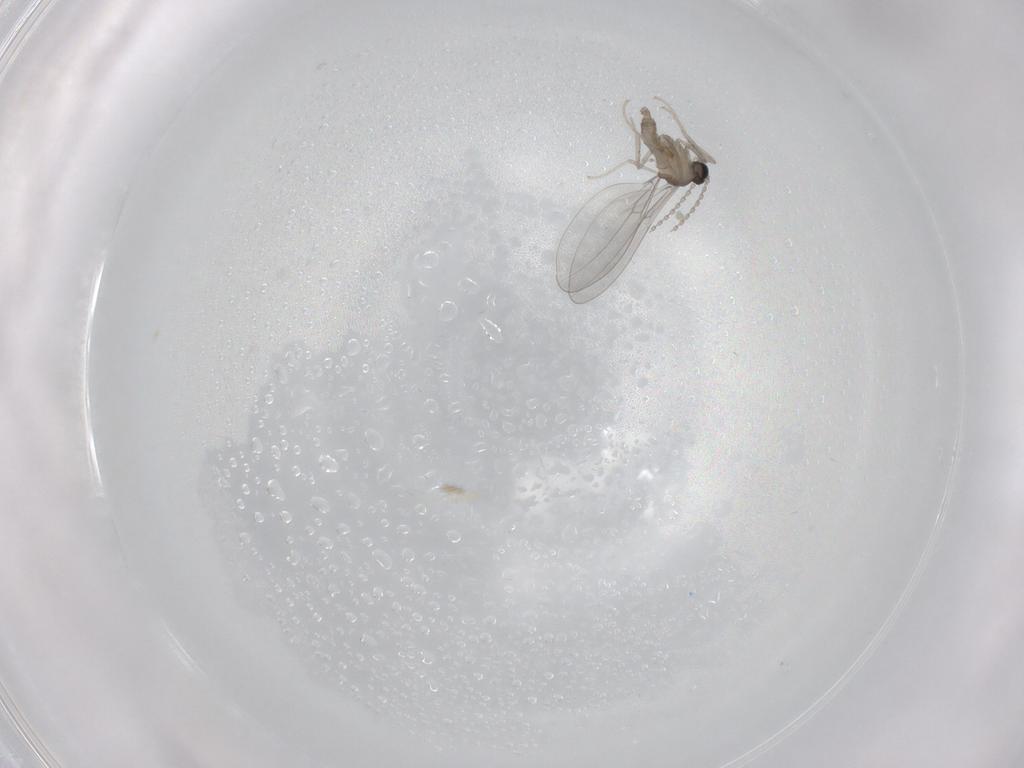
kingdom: Animalia
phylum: Arthropoda
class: Insecta
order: Diptera
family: Cecidomyiidae
